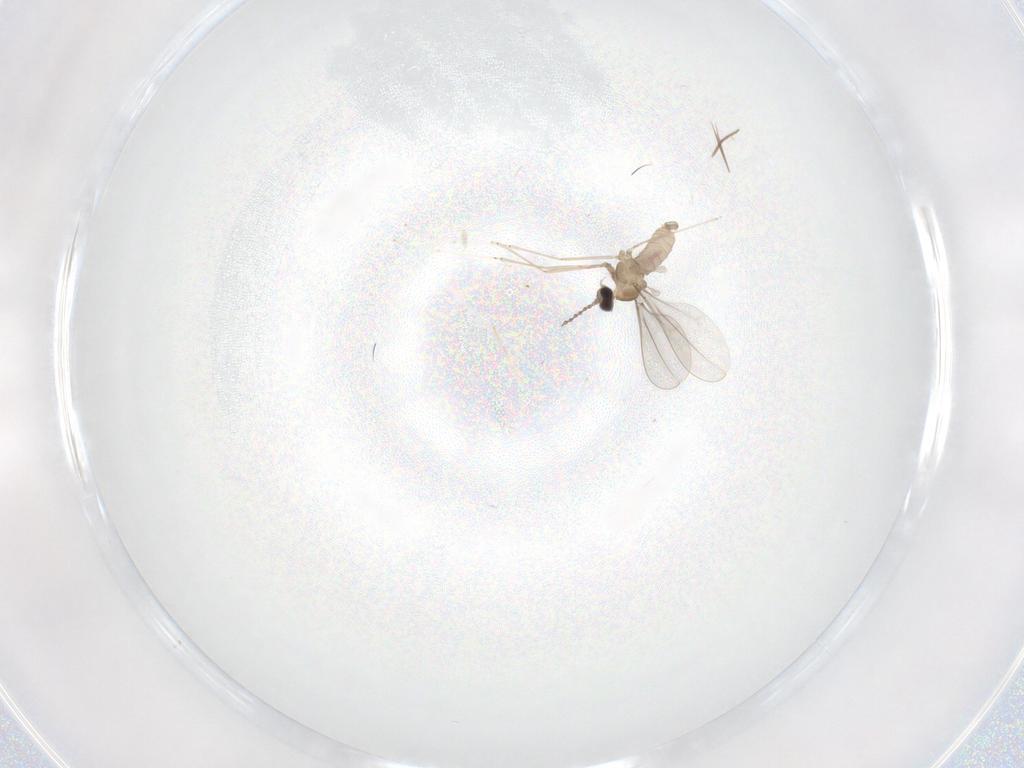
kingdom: Animalia
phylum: Arthropoda
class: Insecta
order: Diptera
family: Cecidomyiidae
